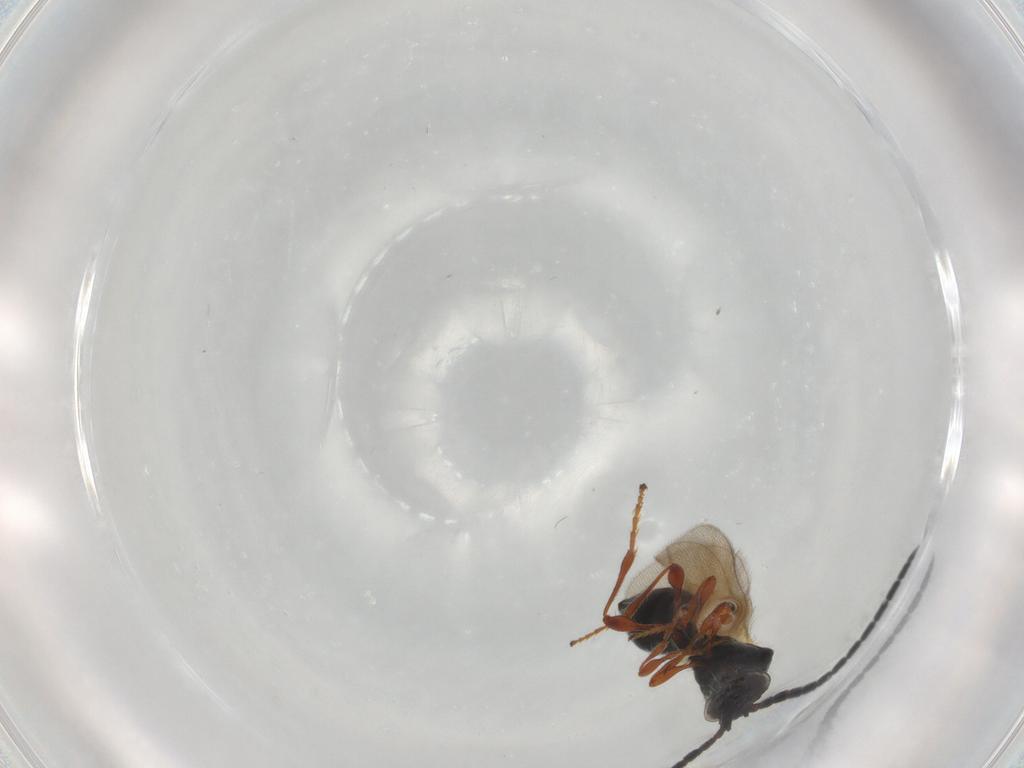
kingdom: Animalia
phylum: Arthropoda
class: Insecta
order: Hymenoptera
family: Diapriidae
